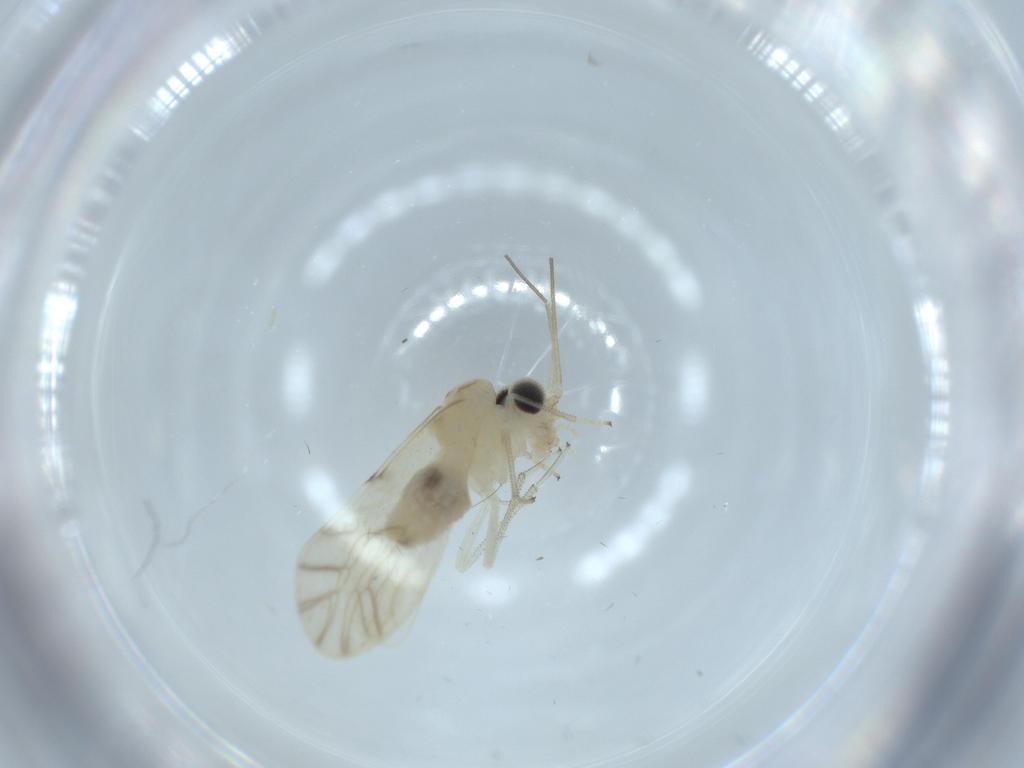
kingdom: Animalia
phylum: Arthropoda
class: Insecta
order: Psocodea
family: Caeciliusidae
